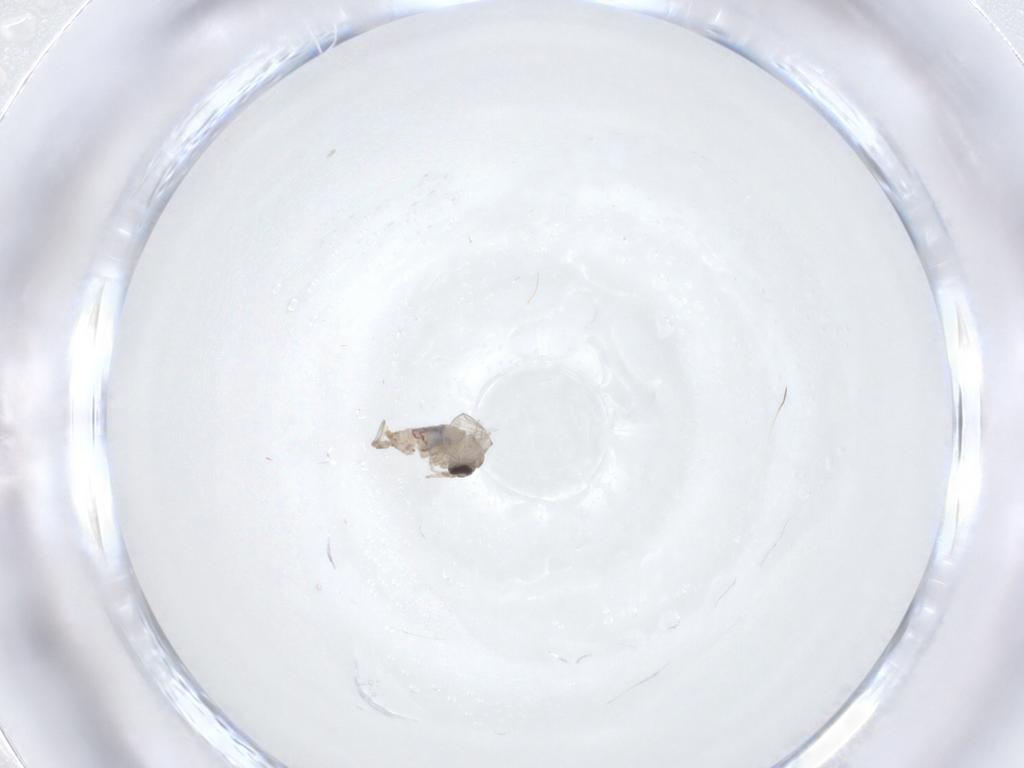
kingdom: Animalia
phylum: Arthropoda
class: Insecta
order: Diptera
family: Psychodidae
